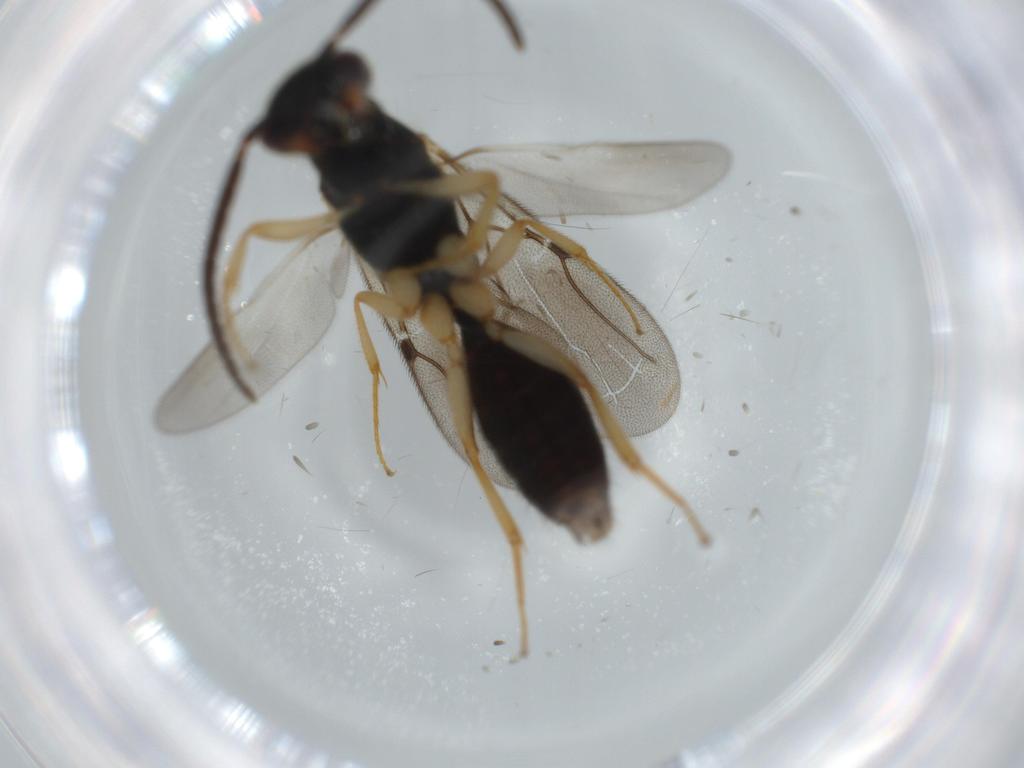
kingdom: Animalia
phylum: Arthropoda
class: Insecta
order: Hymenoptera
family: Bethylidae
